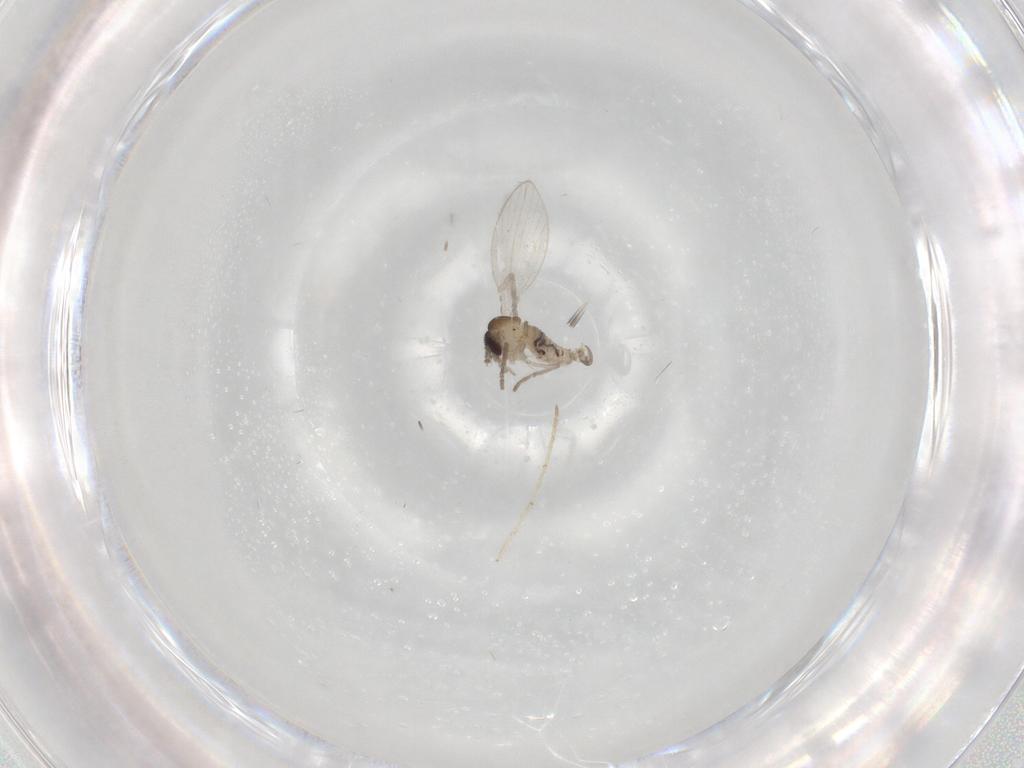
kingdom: Animalia
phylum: Arthropoda
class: Insecta
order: Diptera
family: Psychodidae
